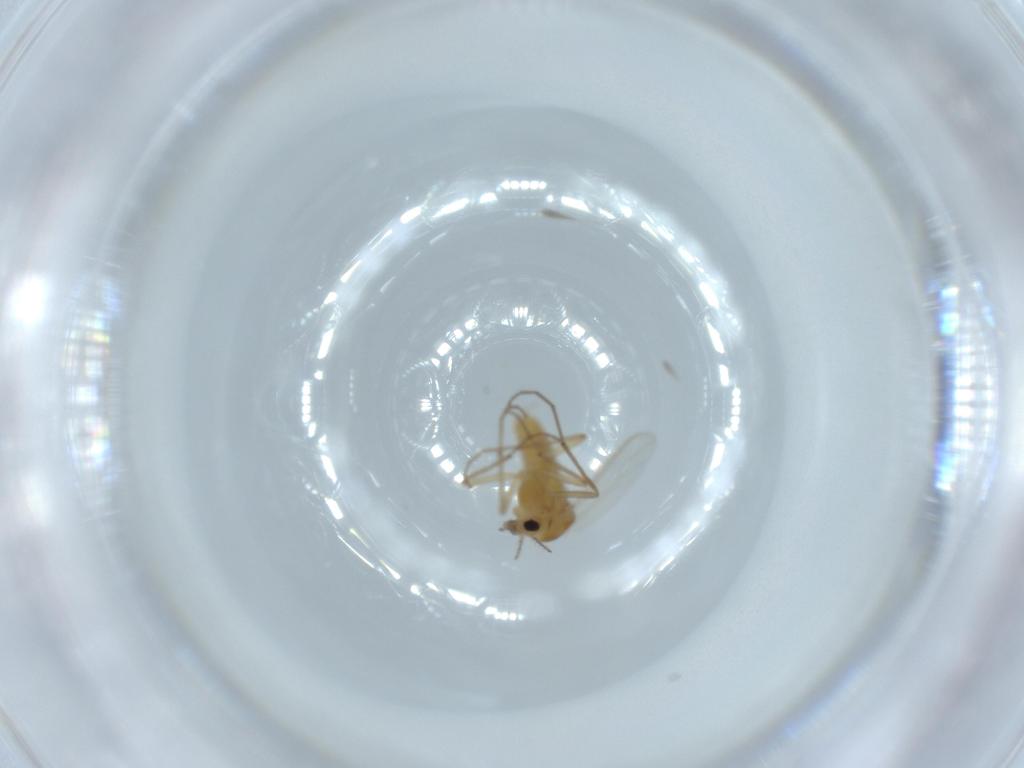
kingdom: Animalia
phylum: Arthropoda
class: Insecta
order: Diptera
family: Chironomidae
